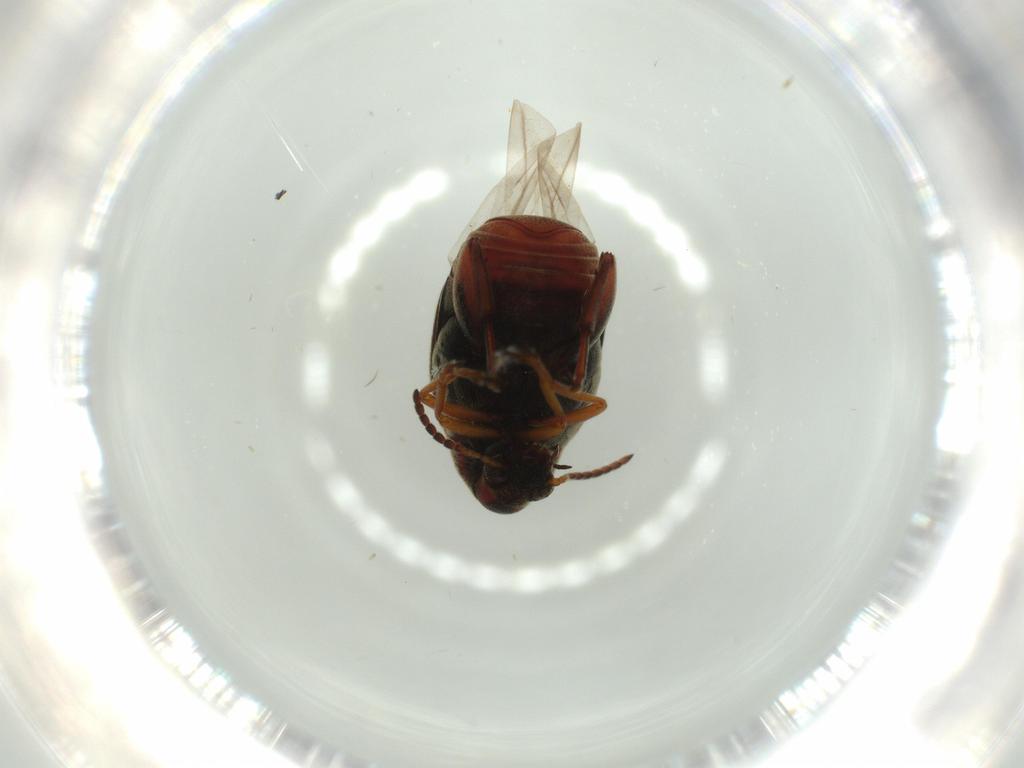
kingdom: Animalia
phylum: Arthropoda
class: Insecta
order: Coleoptera
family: Chrysomelidae
